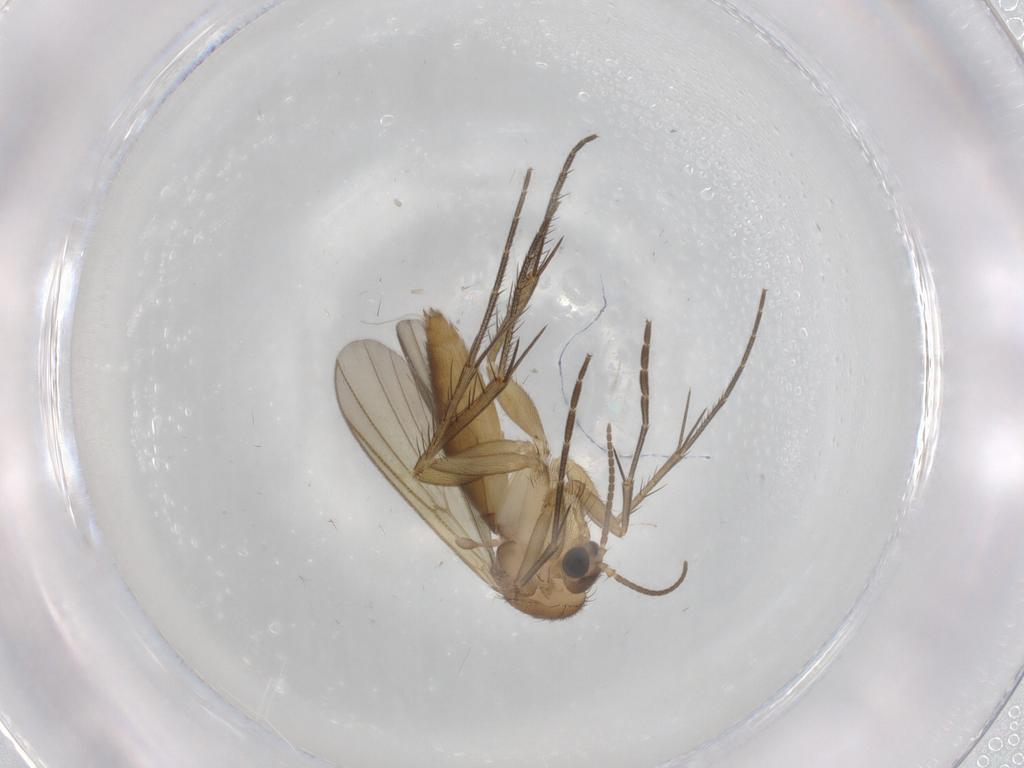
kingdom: Animalia
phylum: Arthropoda
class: Insecta
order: Diptera
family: Cecidomyiidae
